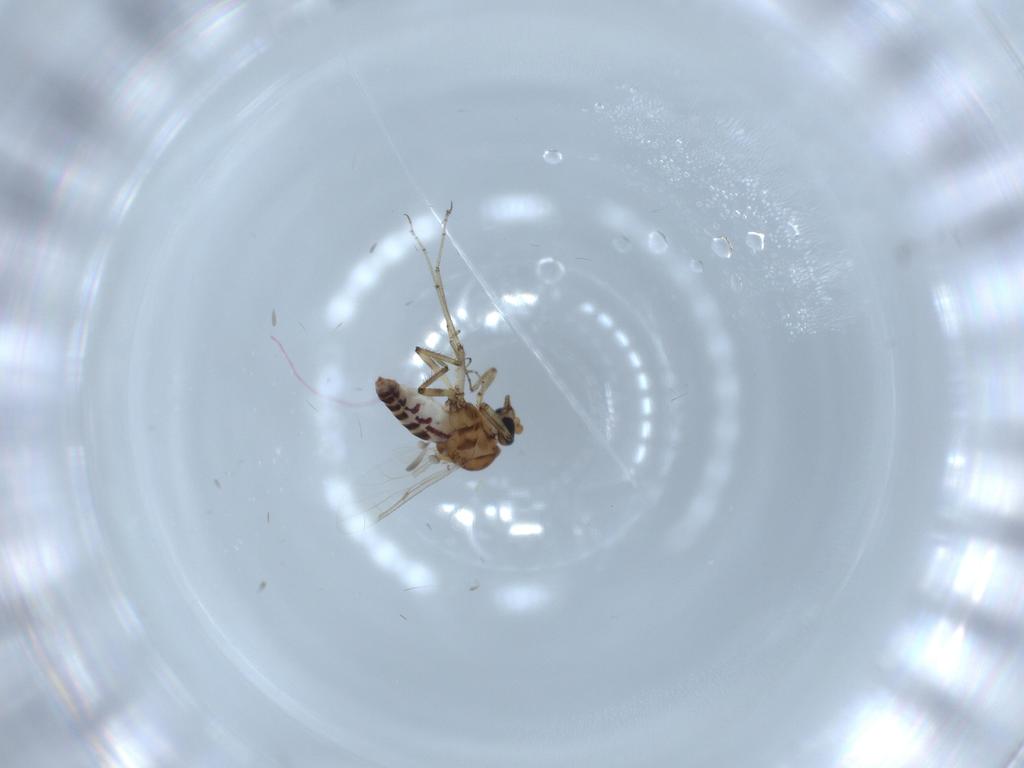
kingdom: Animalia
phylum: Arthropoda
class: Insecta
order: Diptera
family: Ceratopogonidae
